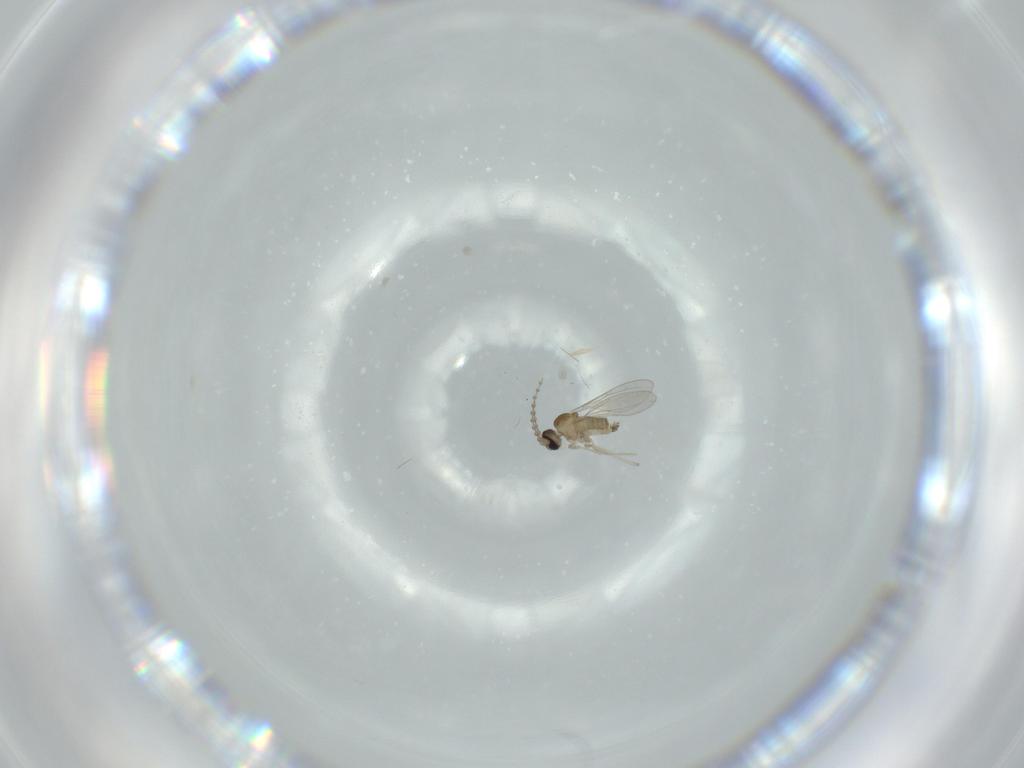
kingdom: Animalia
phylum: Arthropoda
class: Insecta
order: Diptera
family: Cecidomyiidae
